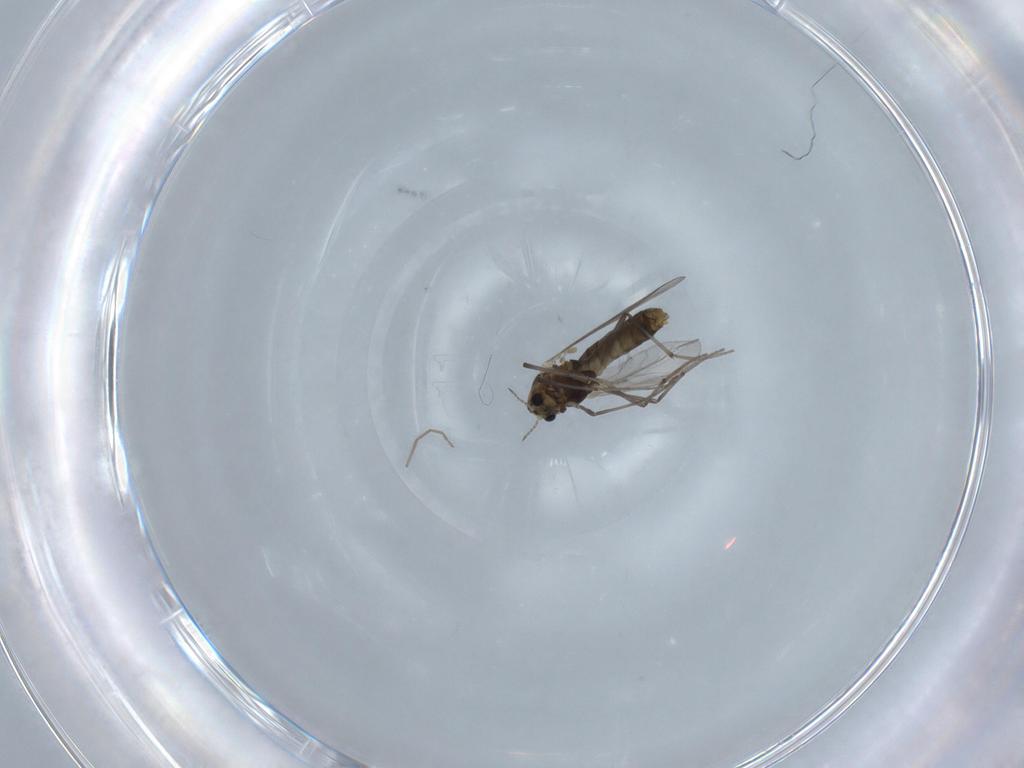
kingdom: Animalia
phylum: Arthropoda
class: Insecta
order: Diptera
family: Chironomidae
